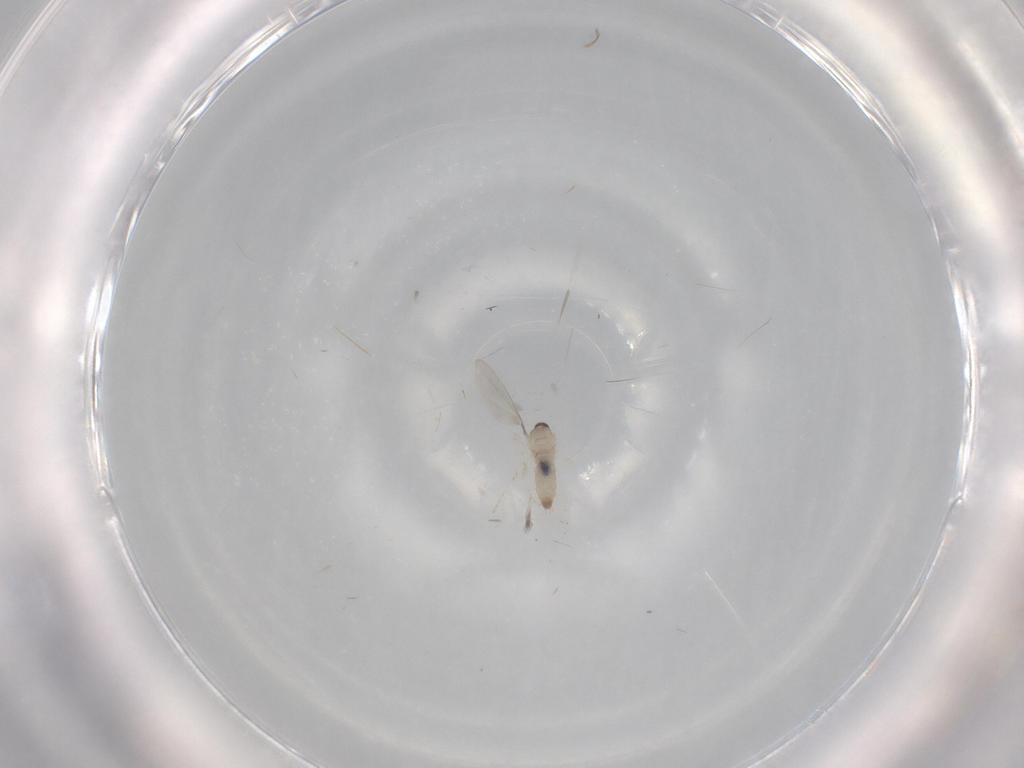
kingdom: Animalia
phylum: Arthropoda
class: Insecta
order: Diptera
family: Cecidomyiidae
